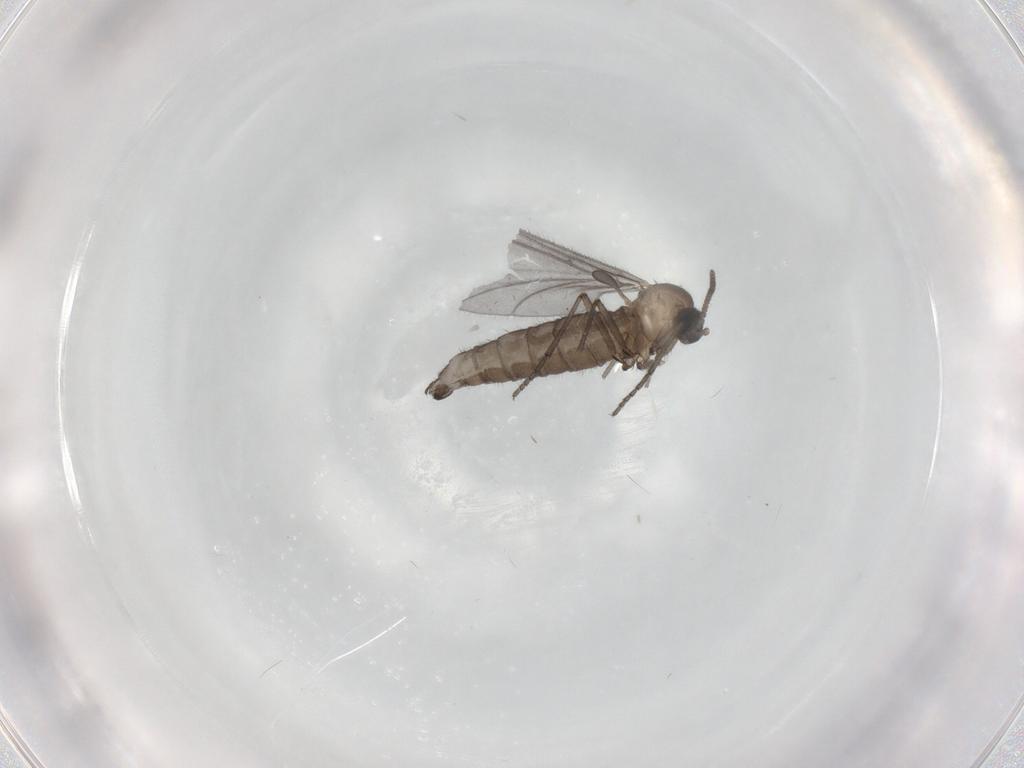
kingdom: Animalia
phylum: Arthropoda
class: Insecta
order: Diptera
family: Sciaridae
